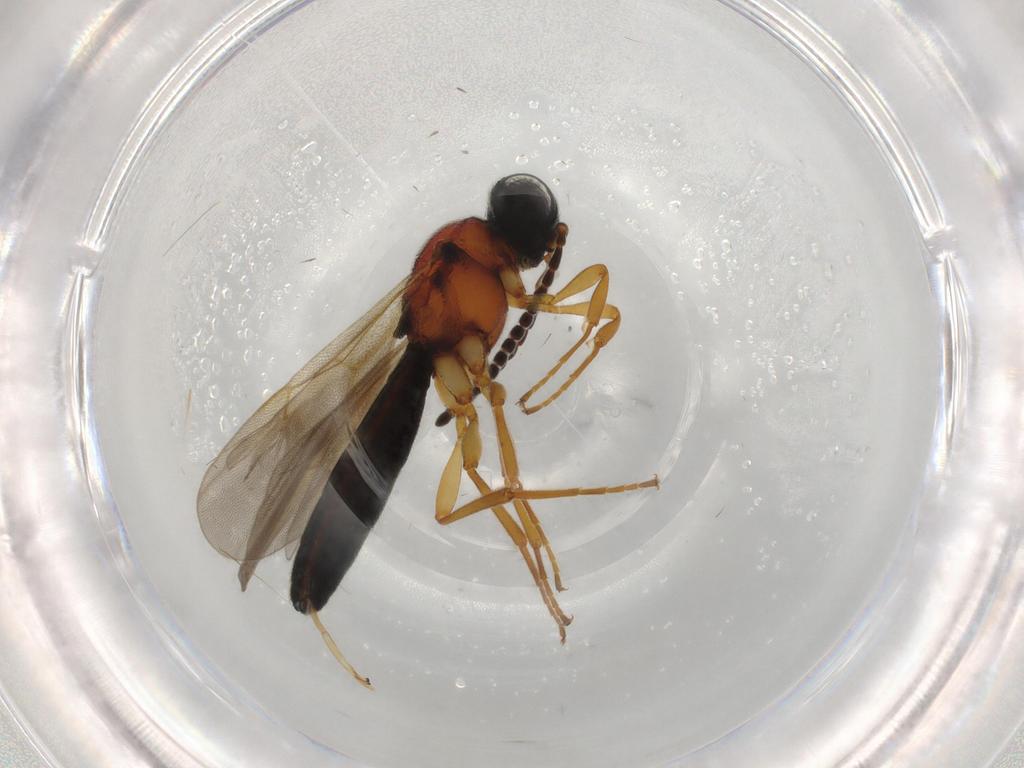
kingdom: Animalia
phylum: Arthropoda
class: Insecta
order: Hymenoptera
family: Scelionidae
